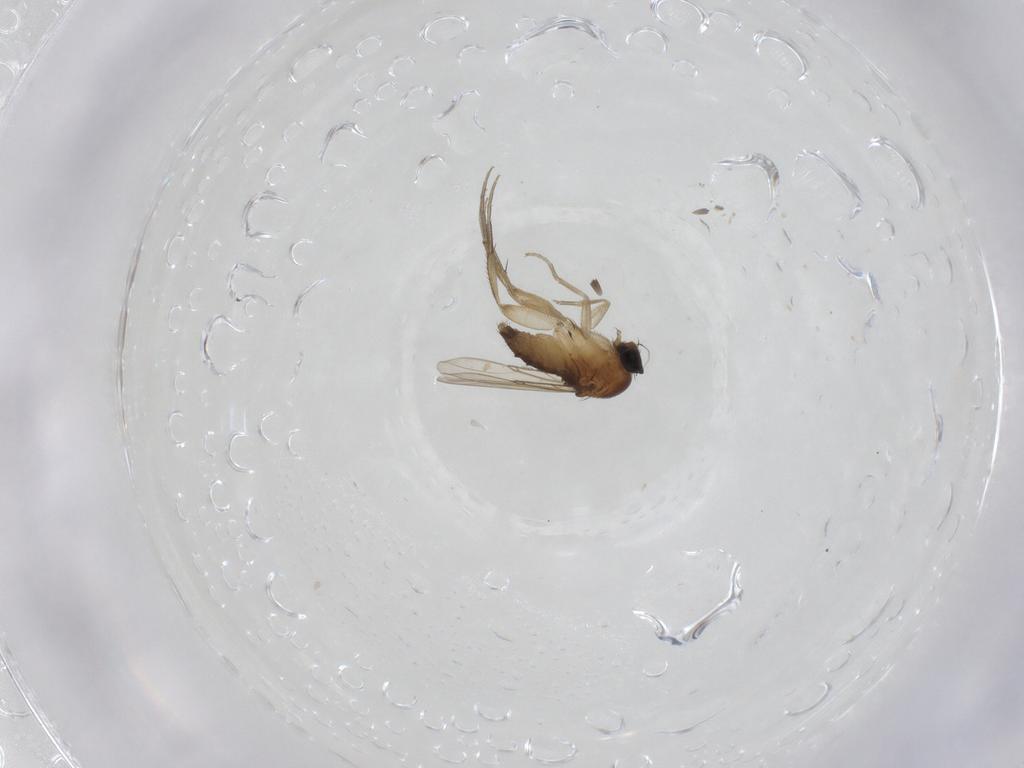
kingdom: Animalia
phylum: Arthropoda
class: Insecta
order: Diptera
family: Phoridae
